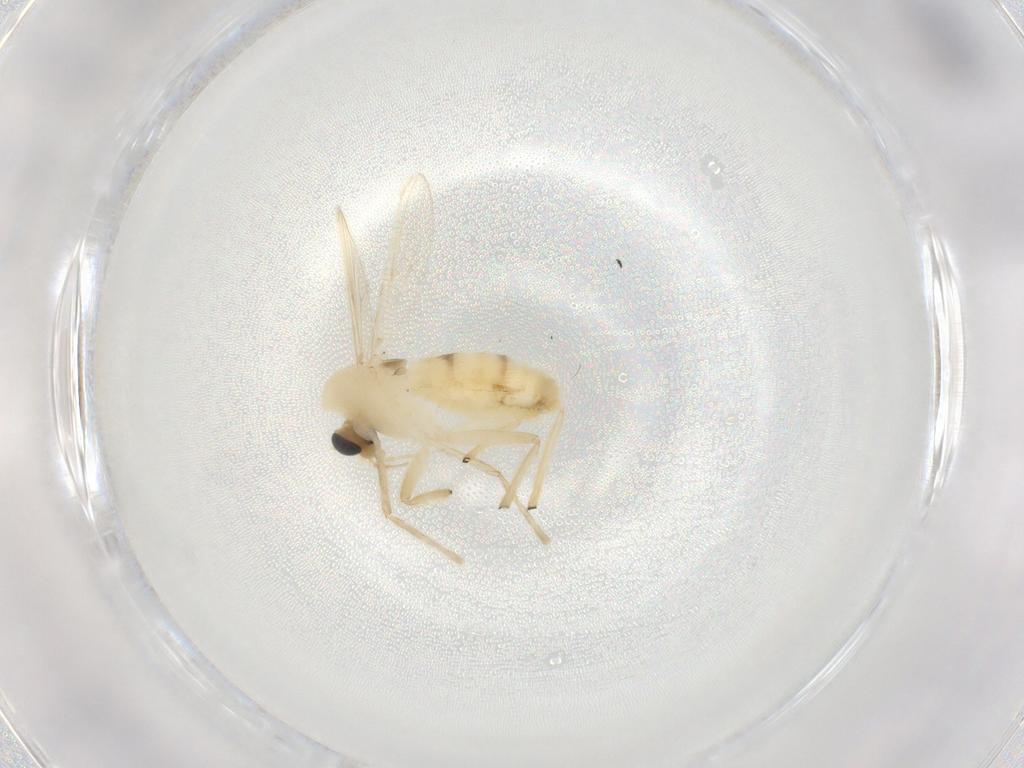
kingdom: Animalia
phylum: Arthropoda
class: Insecta
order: Diptera
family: Chironomidae
